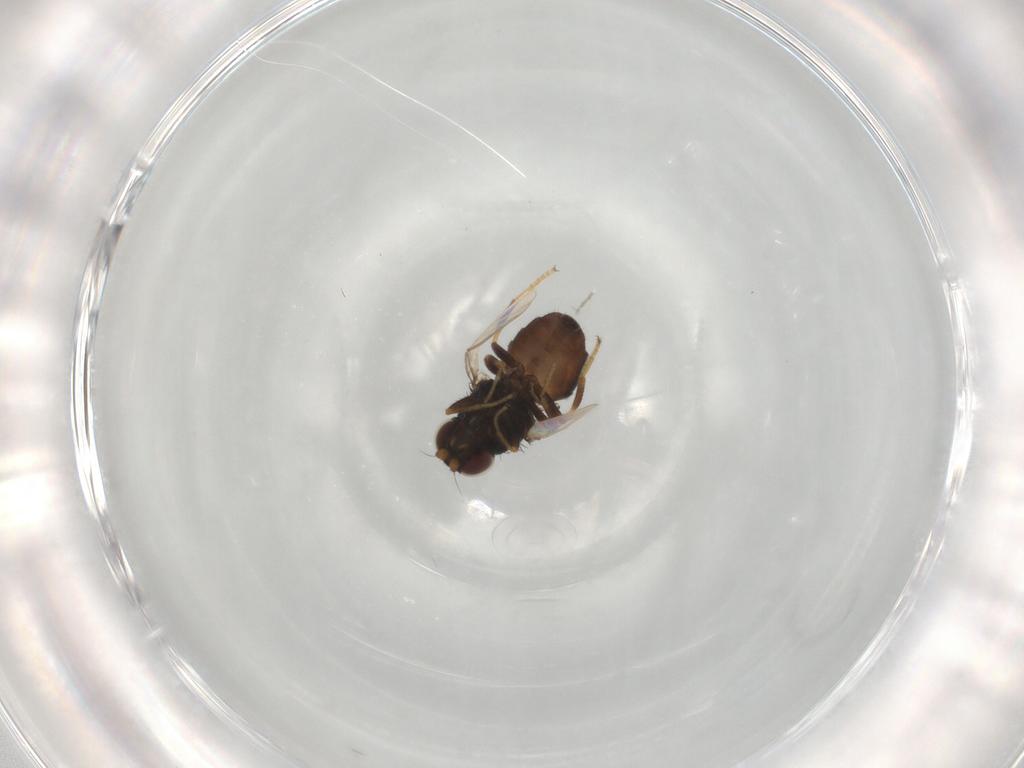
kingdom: Animalia
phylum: Arthropoda
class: Insecta
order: Diptera
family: Chloropidae
